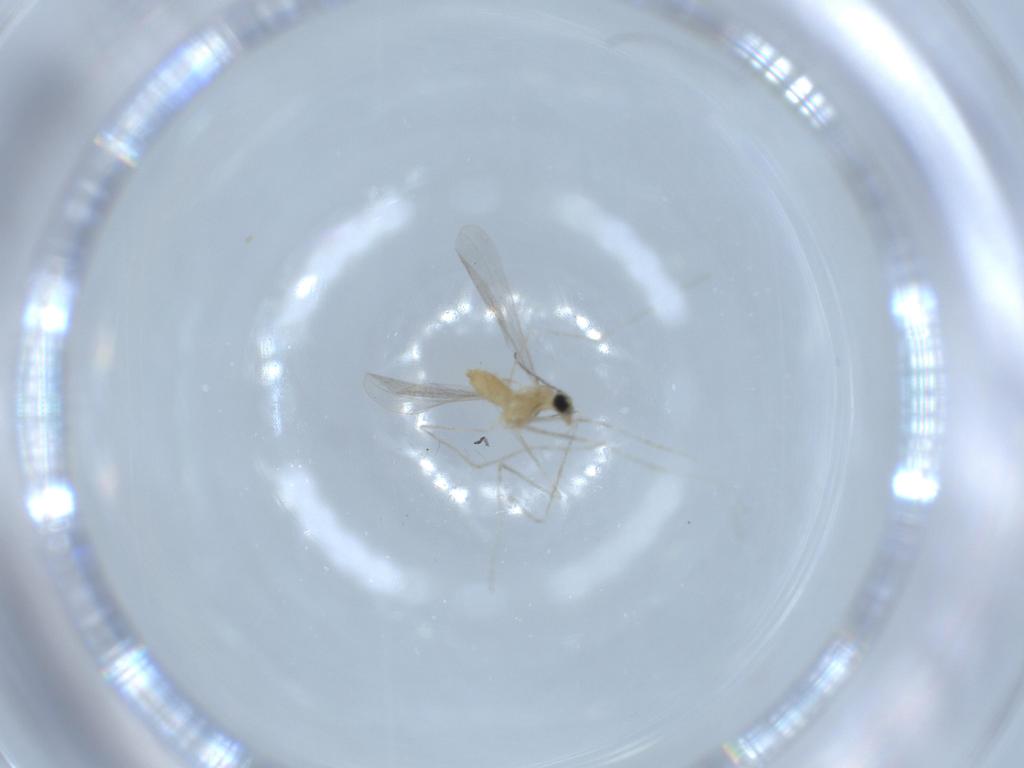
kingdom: Animalia
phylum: Arthropoda
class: Insecta
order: Diptera
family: Cecidomyiidae
